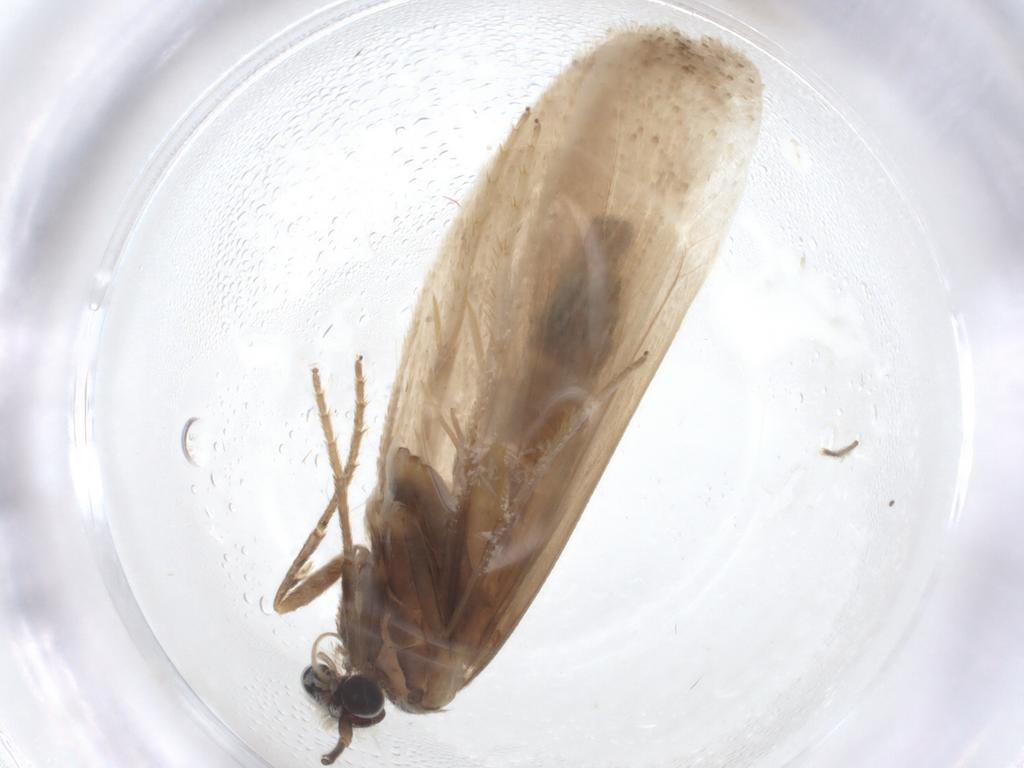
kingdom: Animalia
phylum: Arthropoda
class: Insecta
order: Lepidoptera
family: Tridentaformidae
